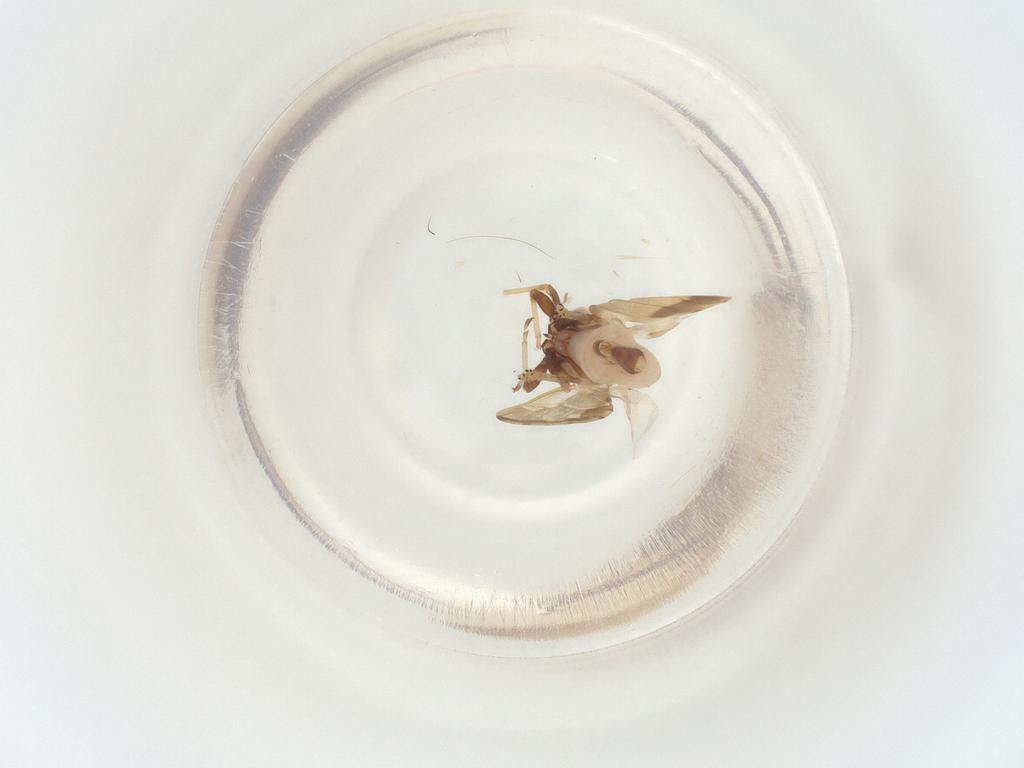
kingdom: Animalia
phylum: Arthropoda
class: Insecta
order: Hemiptera
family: Psyllidae
